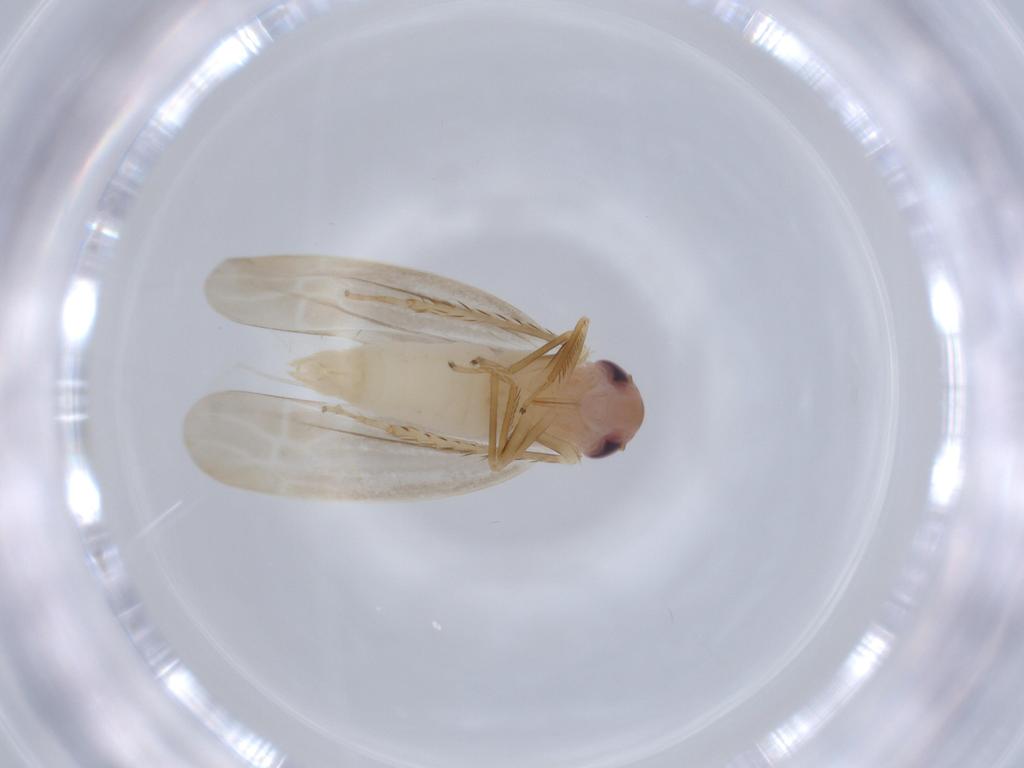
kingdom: Animalia
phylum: Arthropoda
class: Insecta
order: Hemiptera
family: Cicadellidae
